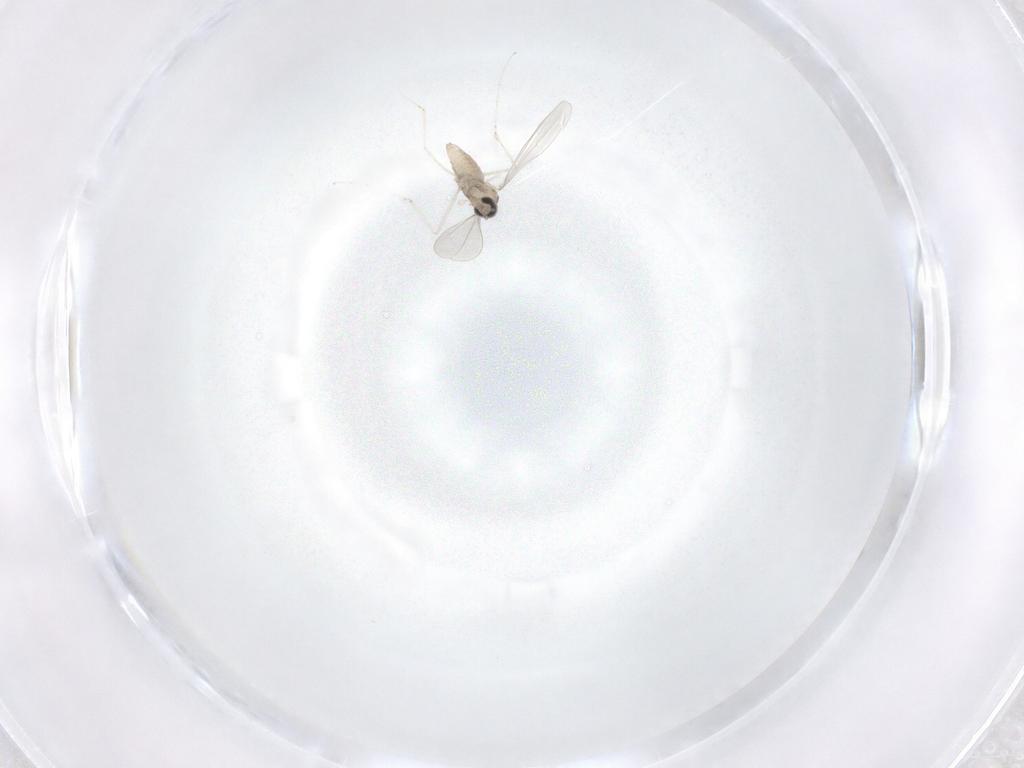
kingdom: Animalia
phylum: Arthropoda
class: Insecta
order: Diptera
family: Cecidomyiidae
